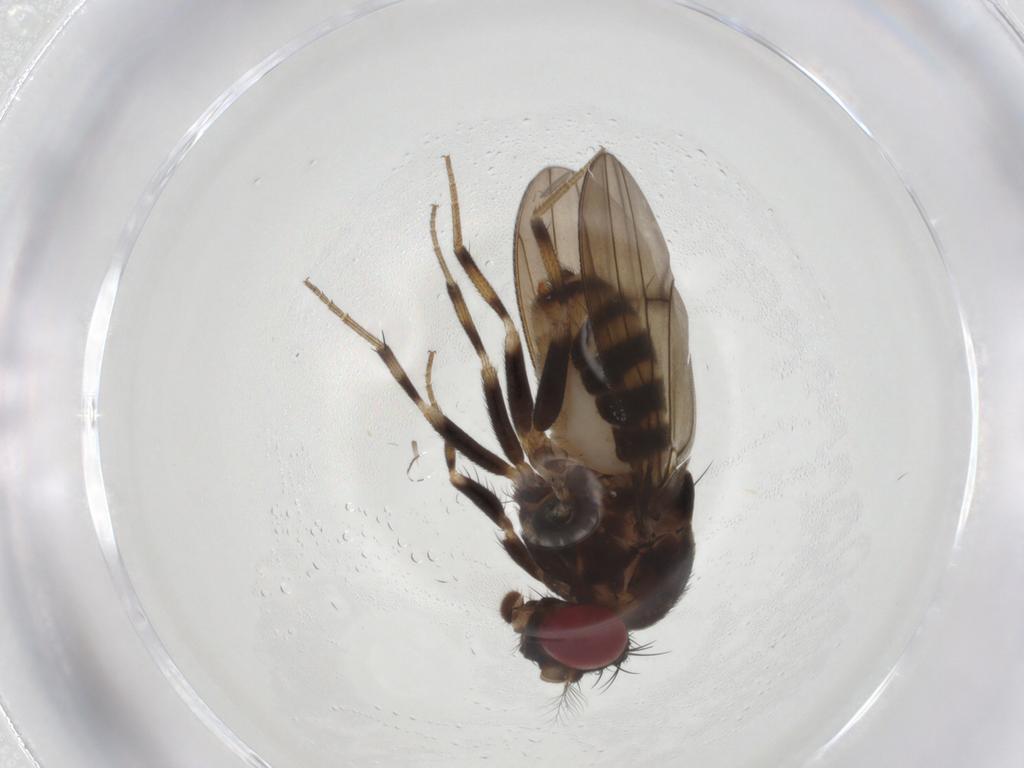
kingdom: Animalia
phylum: Arthropoda
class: Insecta
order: Diptera
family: Drosophilidae
